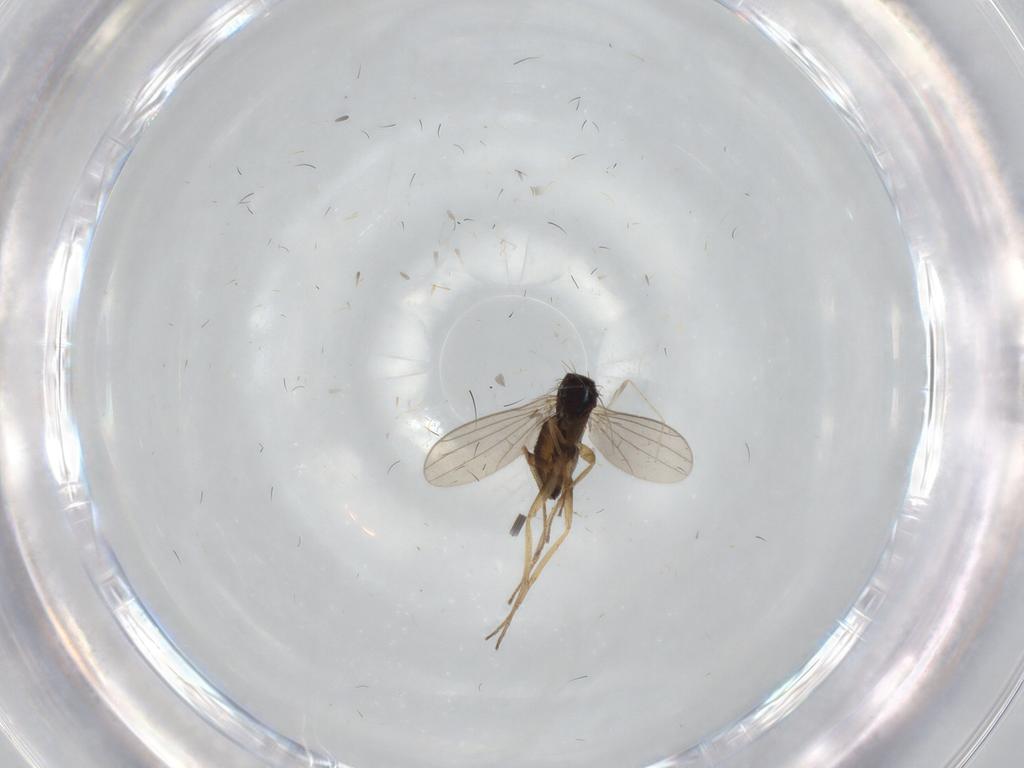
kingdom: Animalia
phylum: Arthropoda
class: Insecta
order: Diptera
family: Dolichopodidae
